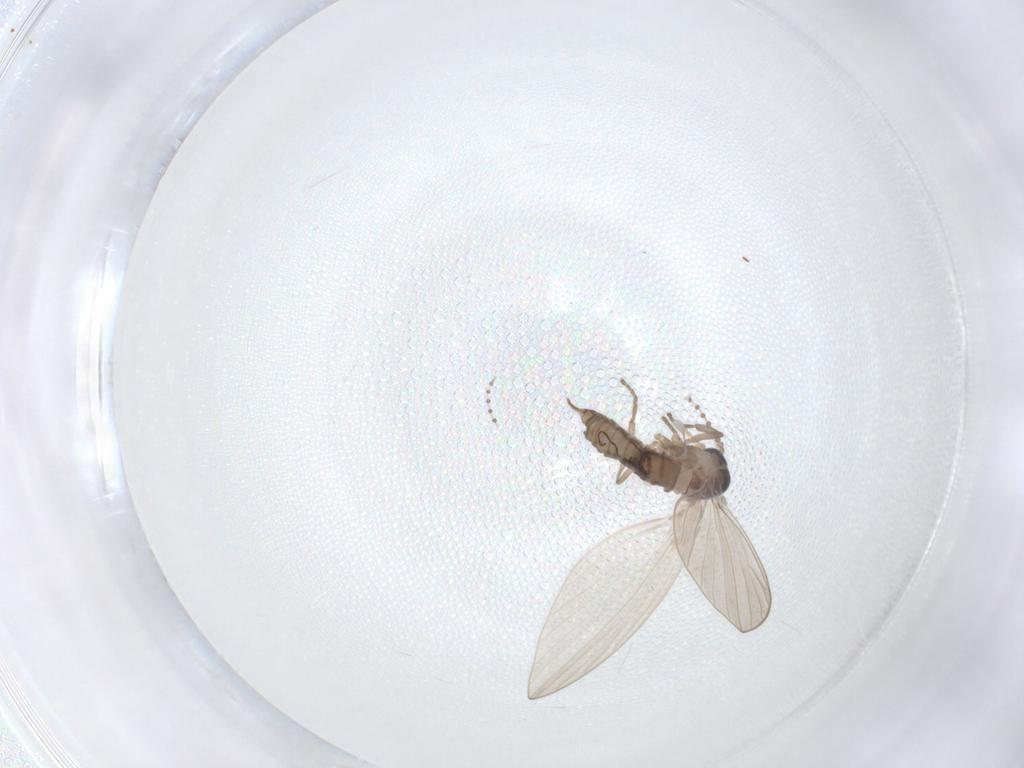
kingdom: Animalia
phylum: Arthropoda
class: Insecta
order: Diptera
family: Psychodidae
